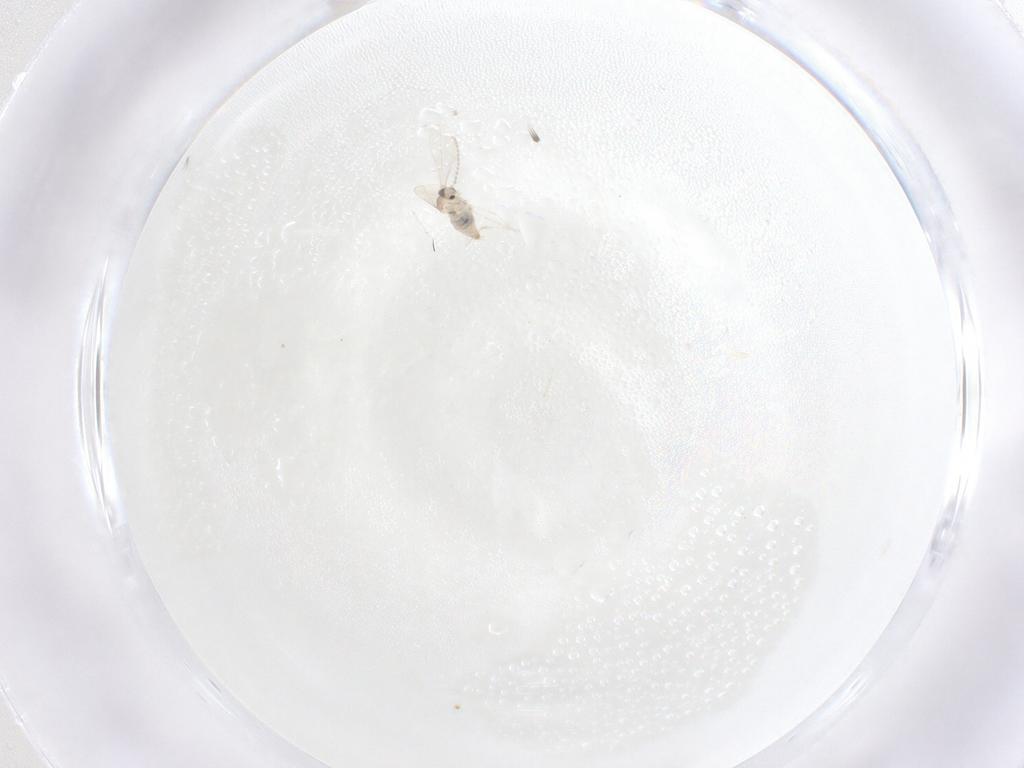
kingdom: Animalia
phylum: Arthropoda
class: Insecta
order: Diptera
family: Cecidomyiidae
